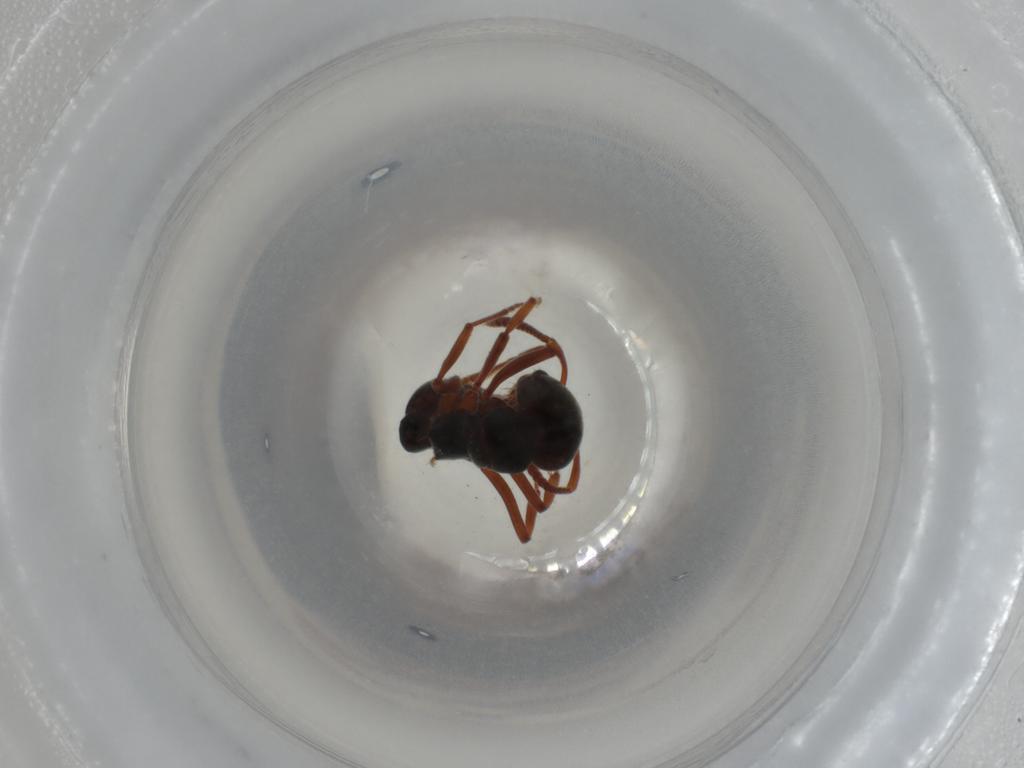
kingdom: Animalia
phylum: Arthropoda
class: Insecta
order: Hymenoptera
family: Formicidae
